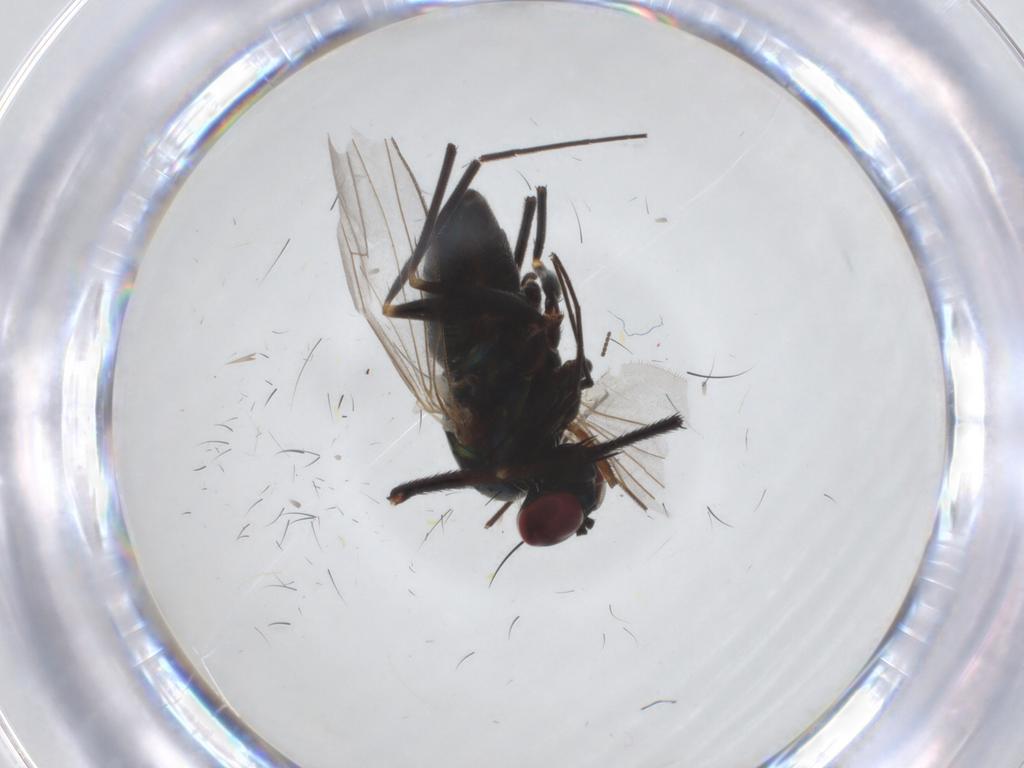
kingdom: Animalia
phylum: Arthropoda
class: Insecta
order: Diptera
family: Dolichopodidae
